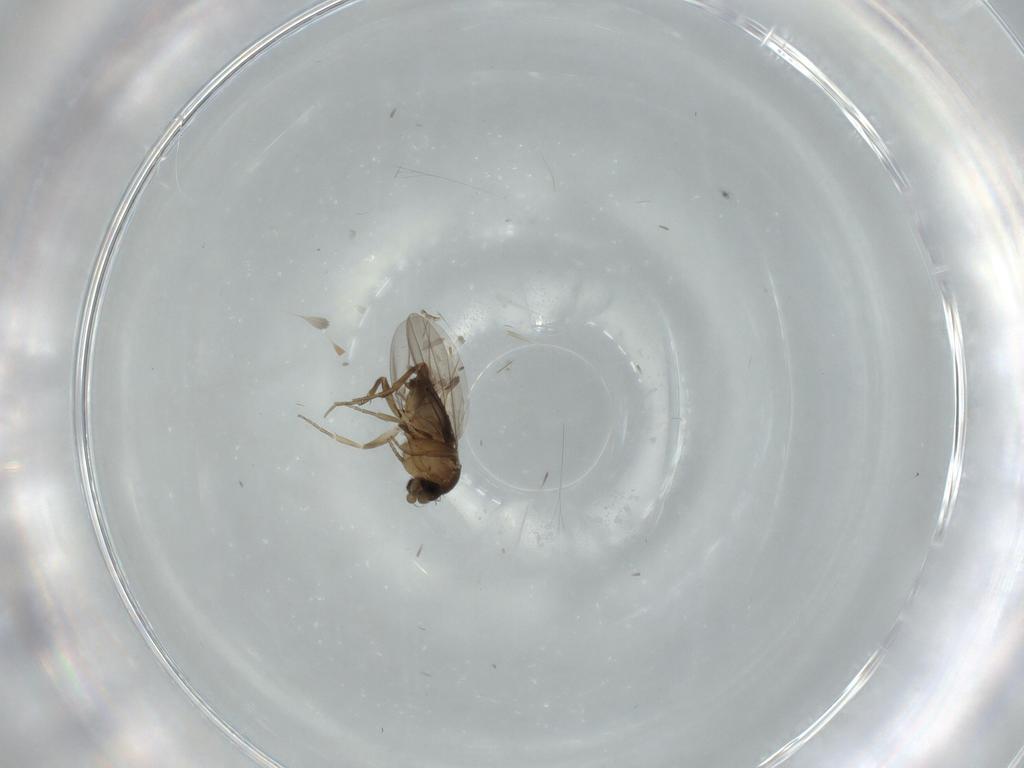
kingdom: Animalia
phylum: Arthropoda
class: Insecta
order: Diptera
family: Phoridae
